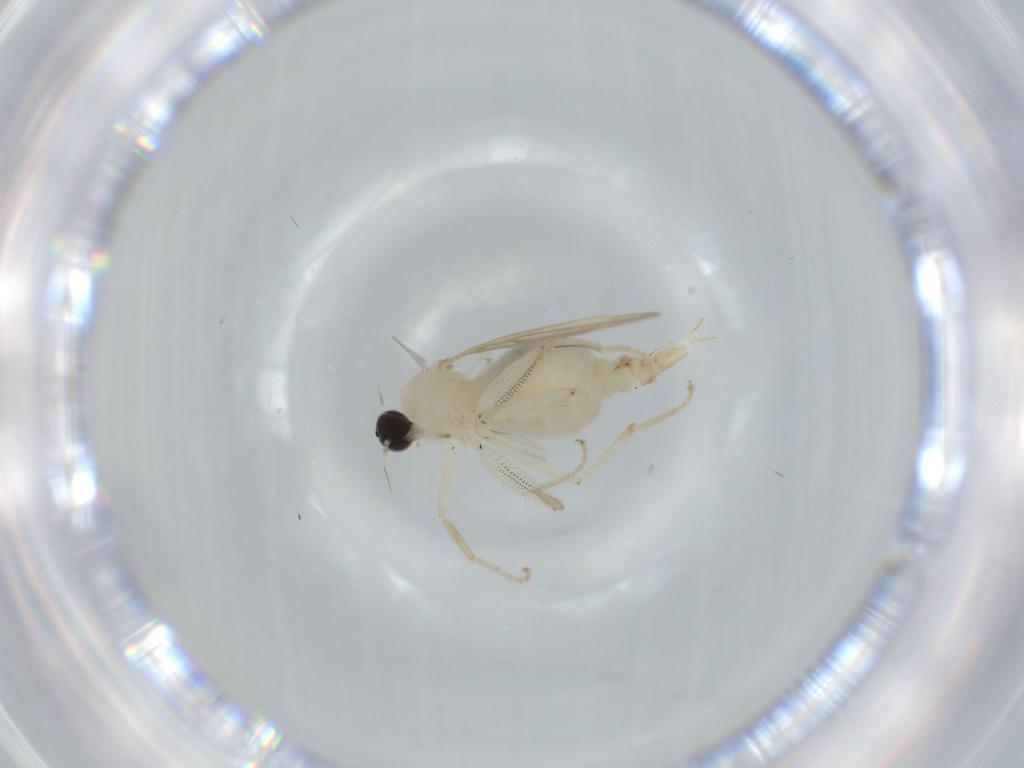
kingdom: Animalia
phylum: Arthropoda
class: Insecta
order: Diptera
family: Hybotidae
